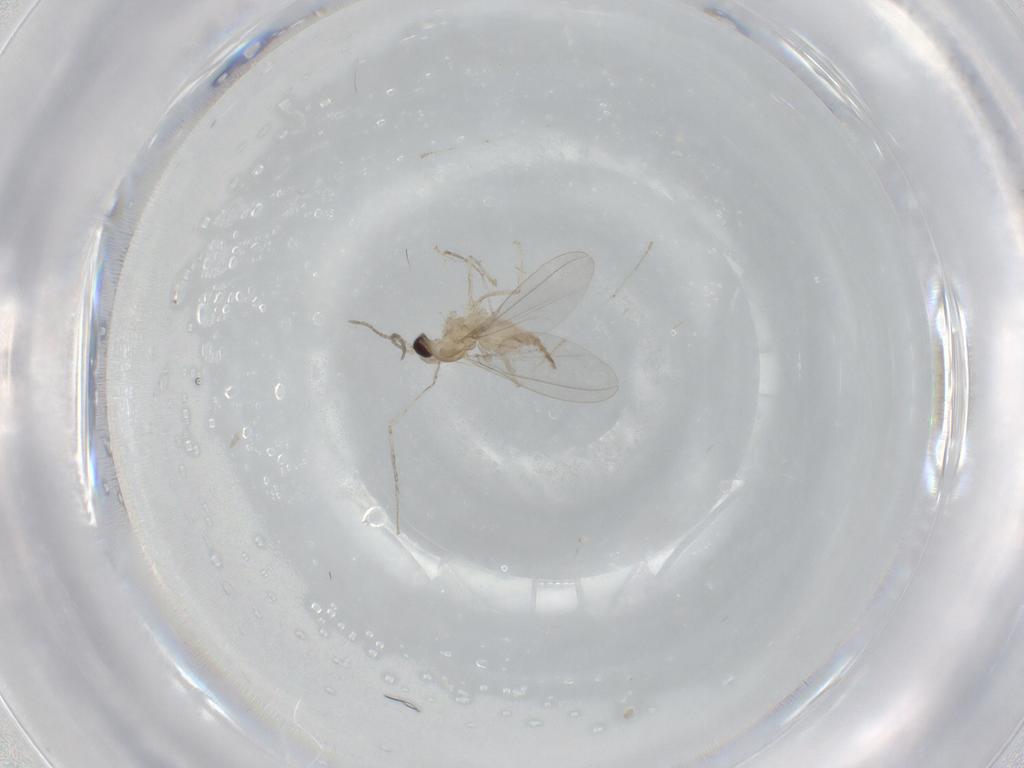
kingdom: Animalia
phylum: Arthropoda
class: Insecta
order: Diptera
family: Cecidomyiidae
